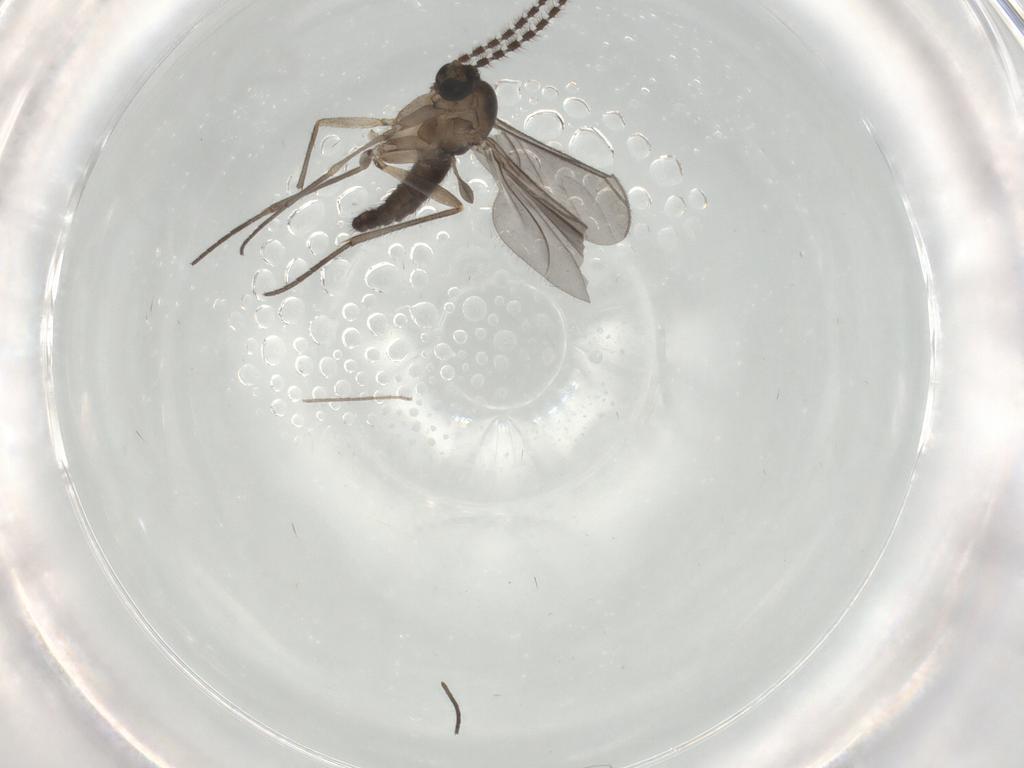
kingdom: Animalia
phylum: Arthropoda
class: Insecta
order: Diptera
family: Sciaridae
